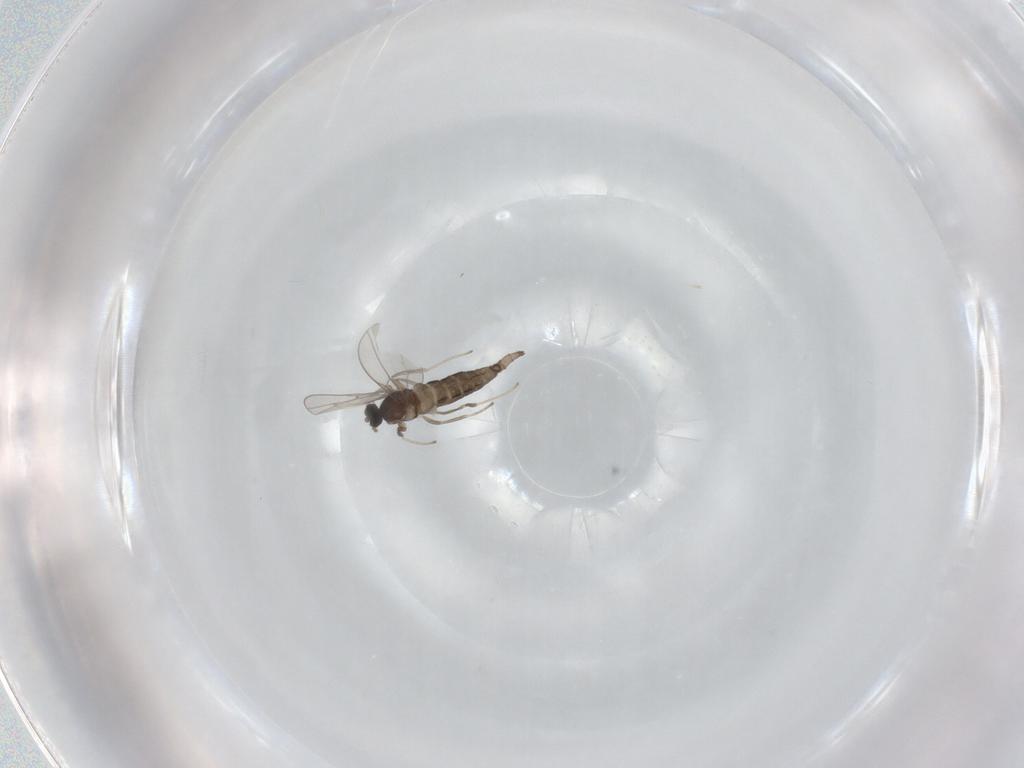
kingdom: Animalia
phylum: Arthropoda
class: Insecta
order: Diptera
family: Cecidomyiidae
